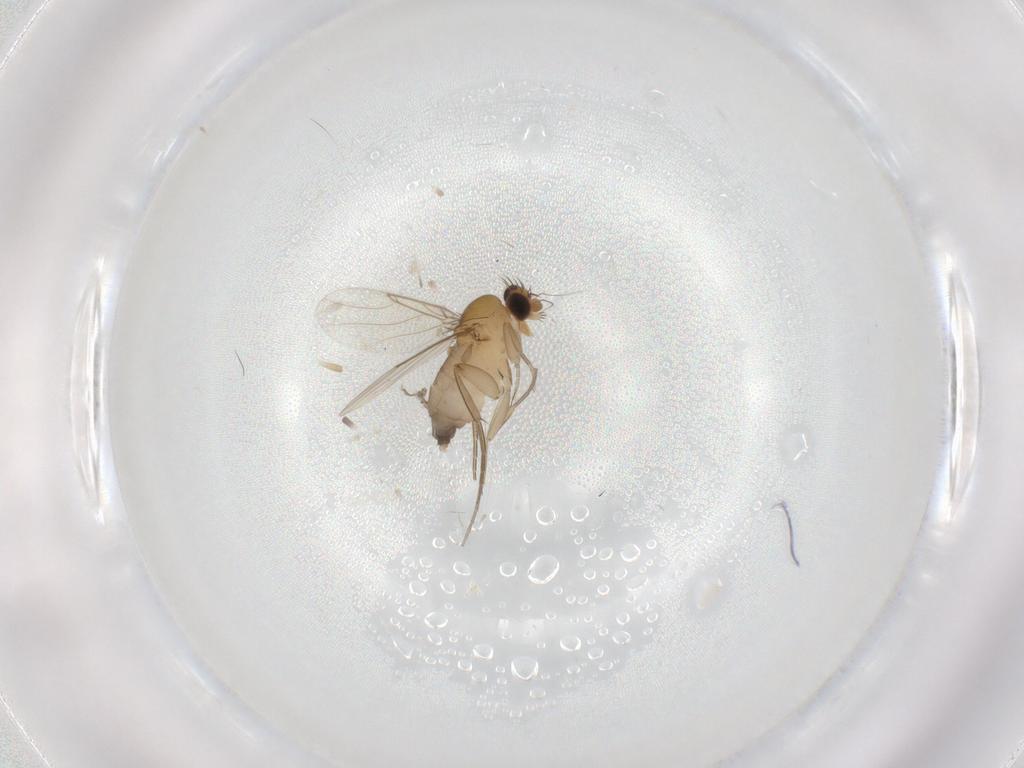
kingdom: Animalia
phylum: Arthropoda
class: Insecta
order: Diptera
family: Phoridae
